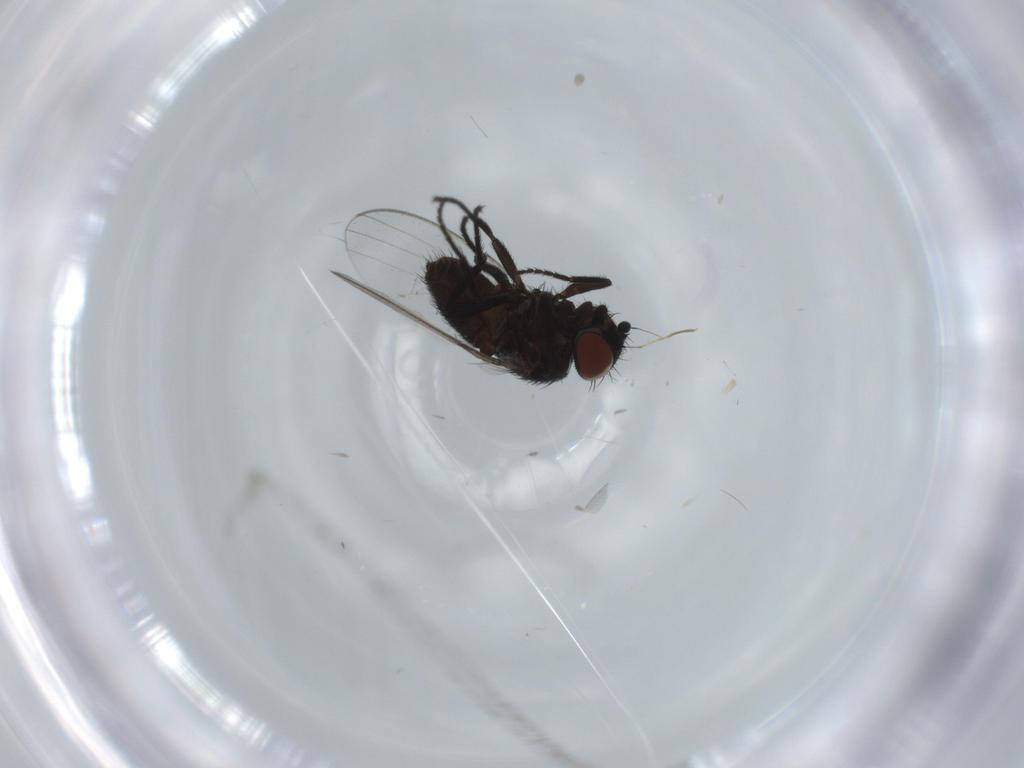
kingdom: Animalia
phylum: Arthropoda
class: Insecta
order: Diptera
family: Milichiidae
